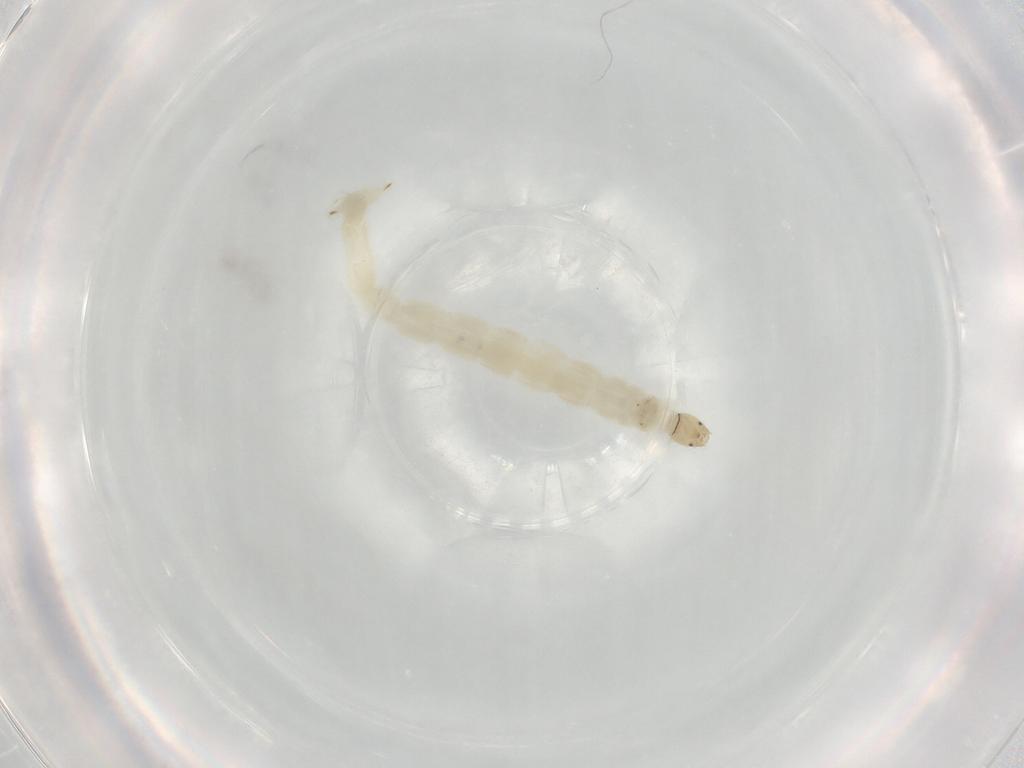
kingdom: Animalia
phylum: Arthropoda
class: Insecta
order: Diptera
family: Chironomidae
